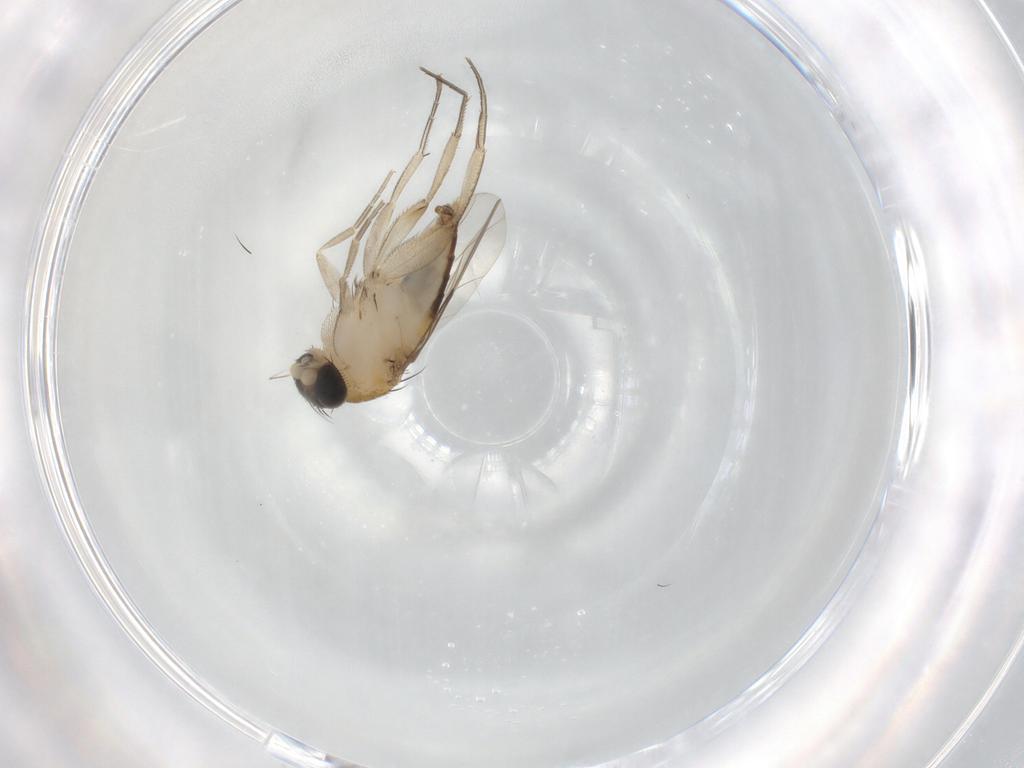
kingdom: Animalia
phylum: Arthropoda
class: Insecta
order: Diptera
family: Phoridae
